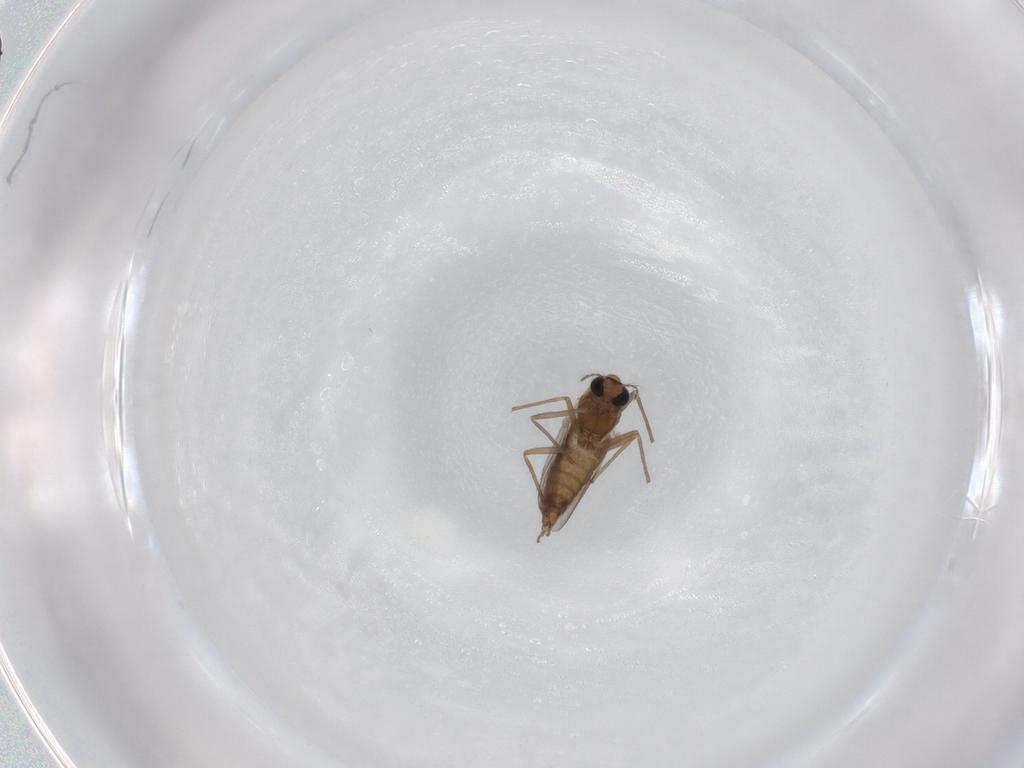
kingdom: Animalia
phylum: Arthropoda
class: Insecta
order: Diptera
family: Chironomidae
